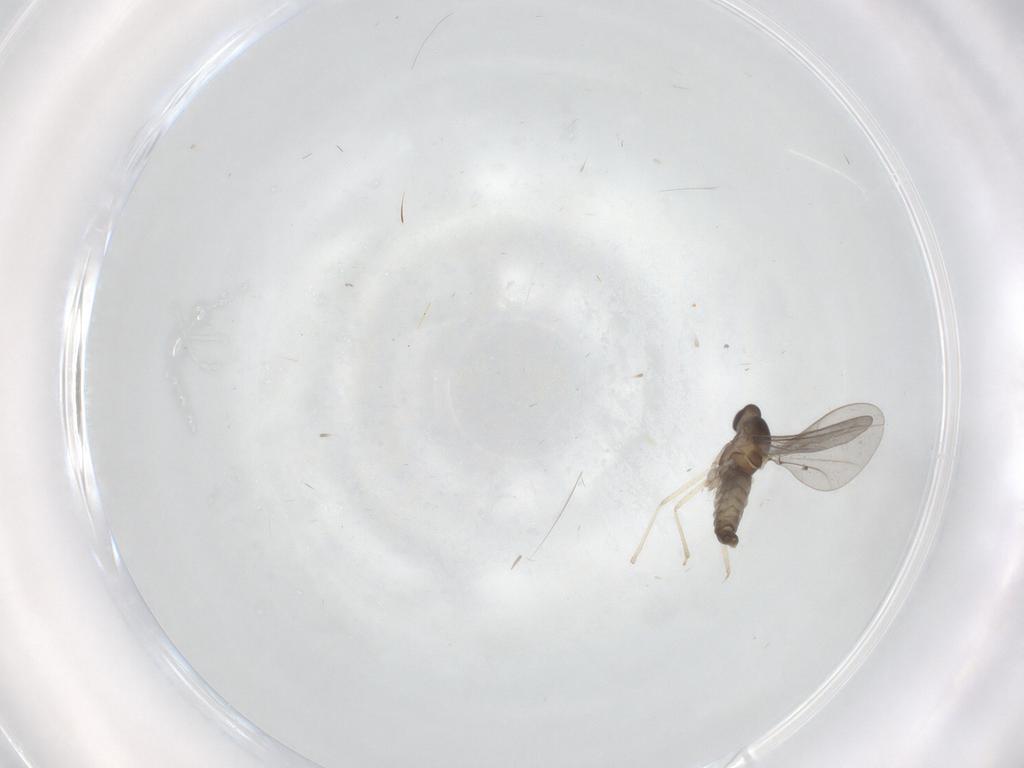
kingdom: Animalia
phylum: Arthropoda
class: Insecta
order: Diptera
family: Cecidomyiidae
